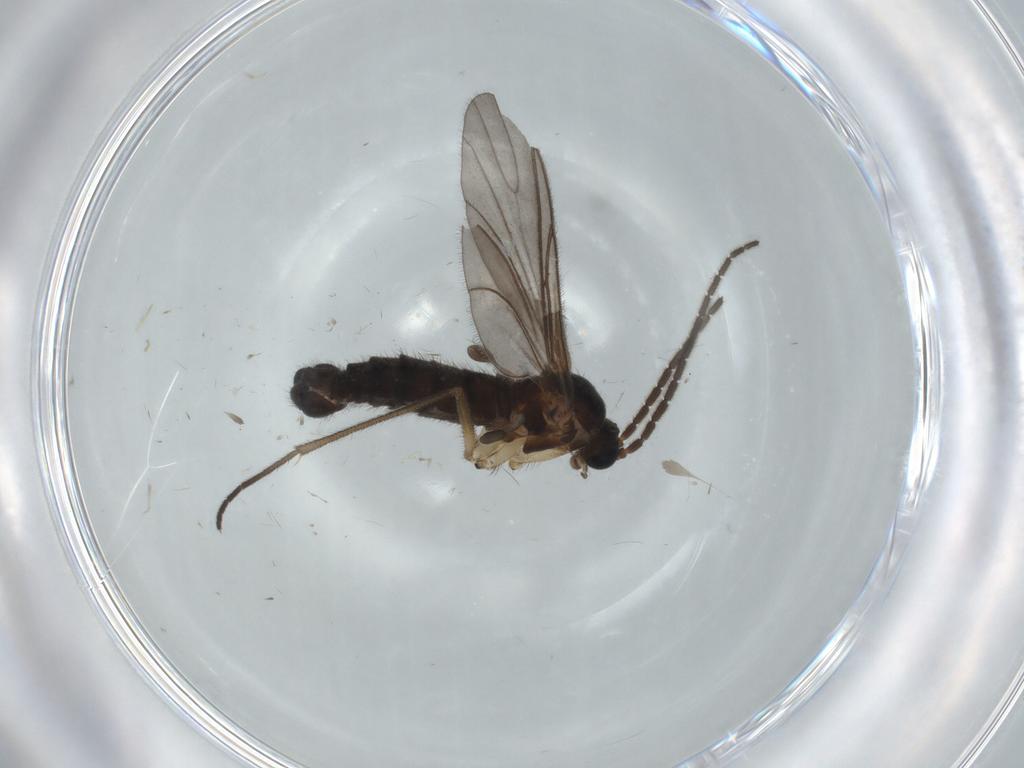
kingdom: Animalia
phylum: Arthropoda
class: Insecta
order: Diptera
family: Sciaridae
